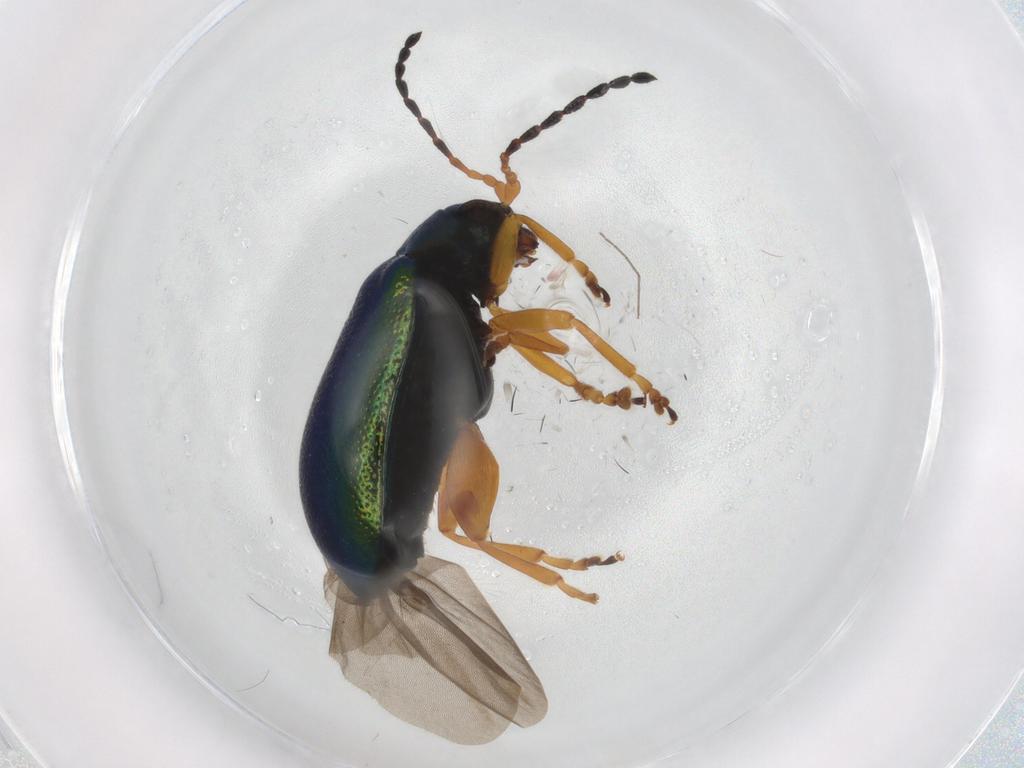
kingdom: Animalia
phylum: Arthropoda
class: Insecta
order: Coleoptera
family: Chrysomelidae
